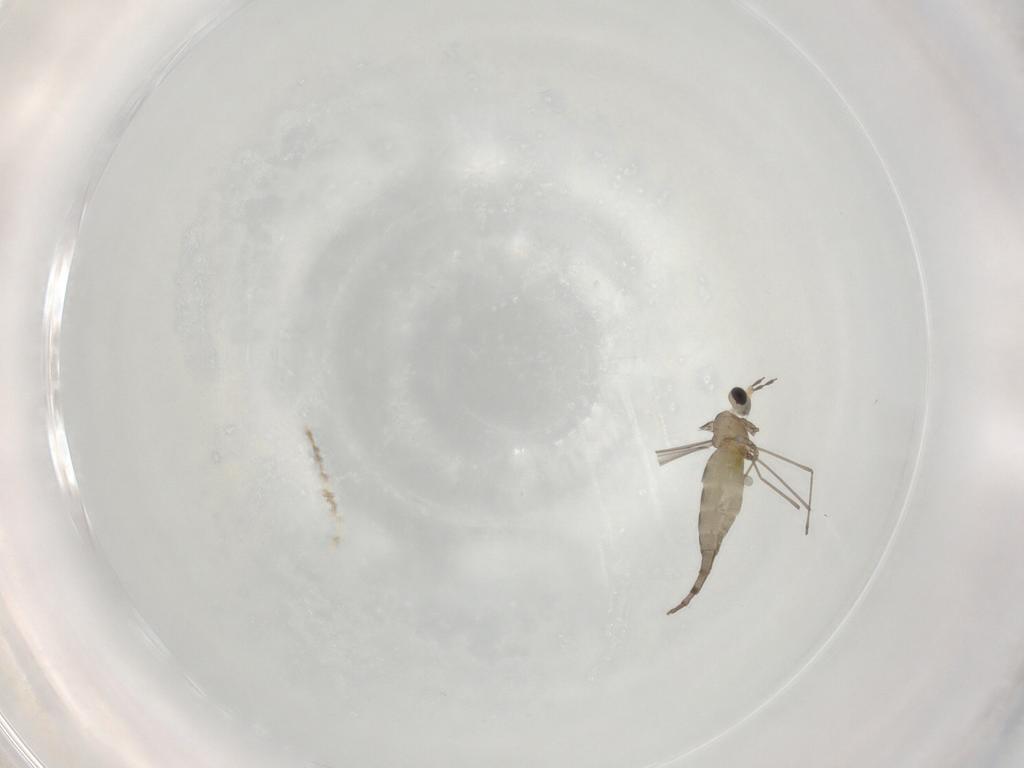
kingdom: Animalia
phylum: Arthropoda
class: Insecta
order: Diptera
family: Cecidomyiidae
